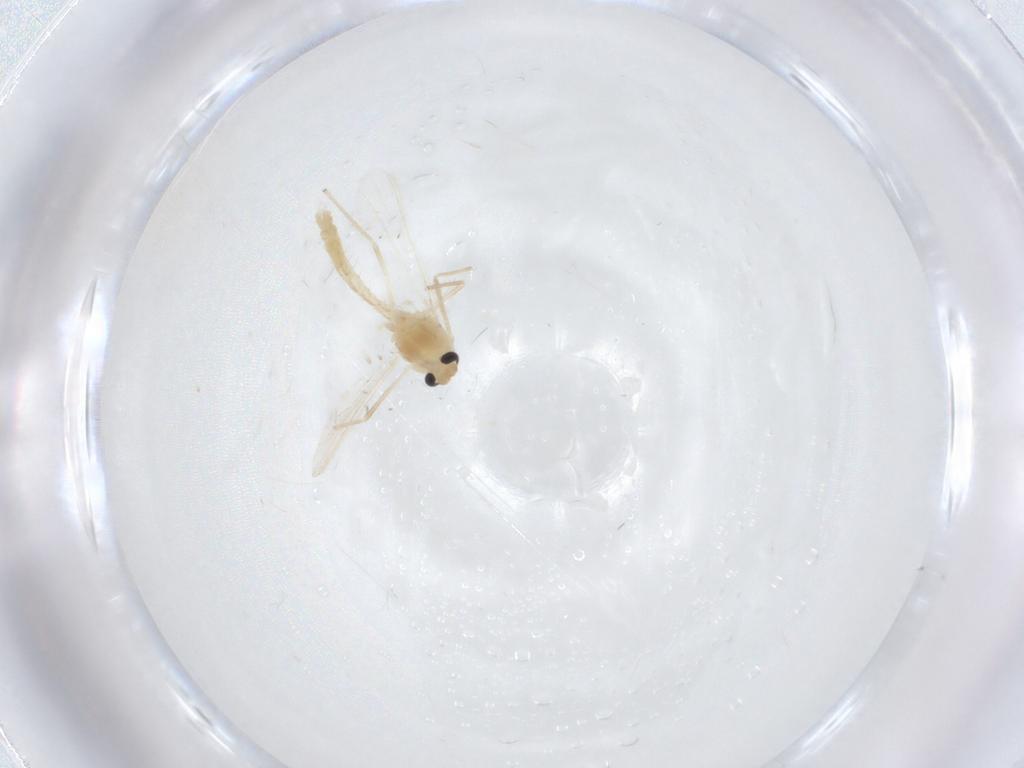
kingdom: Animalia
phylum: Arthropoda
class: Insecta
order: Diptera
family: Chironomidae
